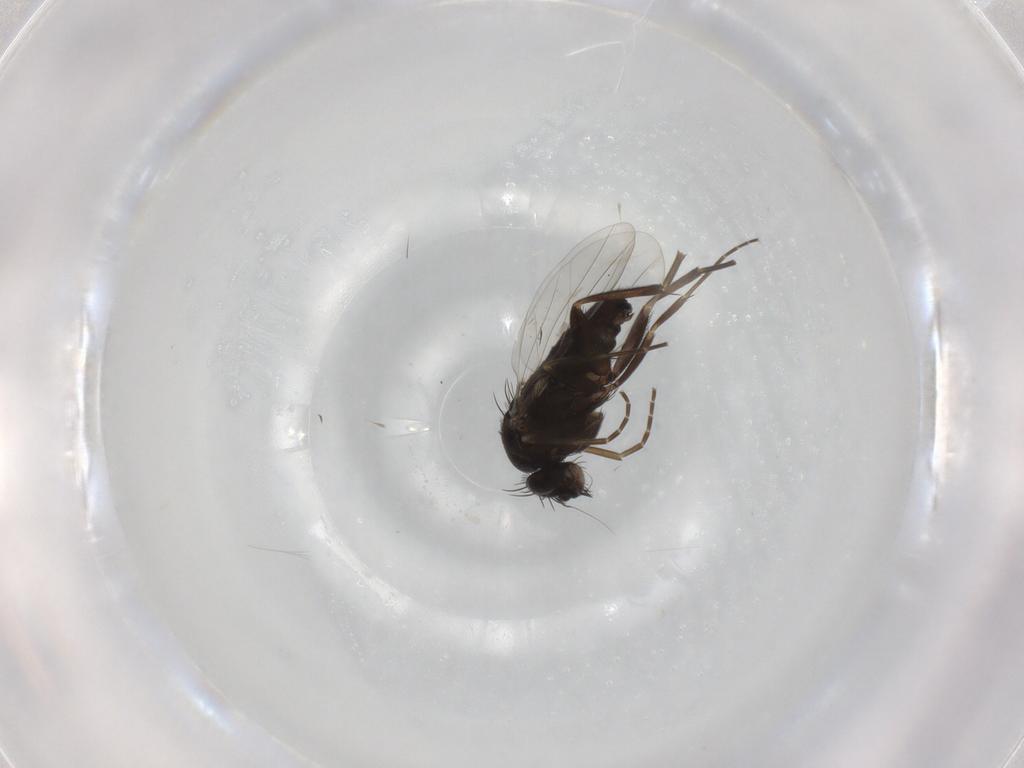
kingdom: Animalia
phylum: Arthropoda
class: Insecta
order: Diptera
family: Phoridae
